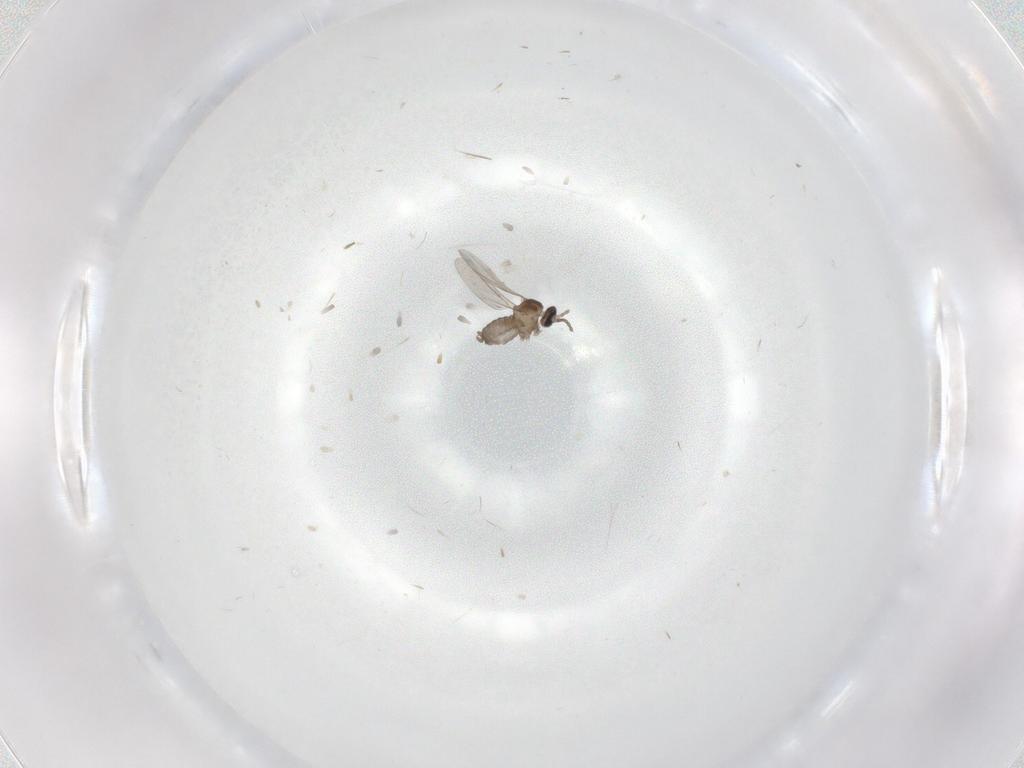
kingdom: Animalia
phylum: Arthropoda
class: Insecta
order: Diptera
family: Cecidomyiidae
